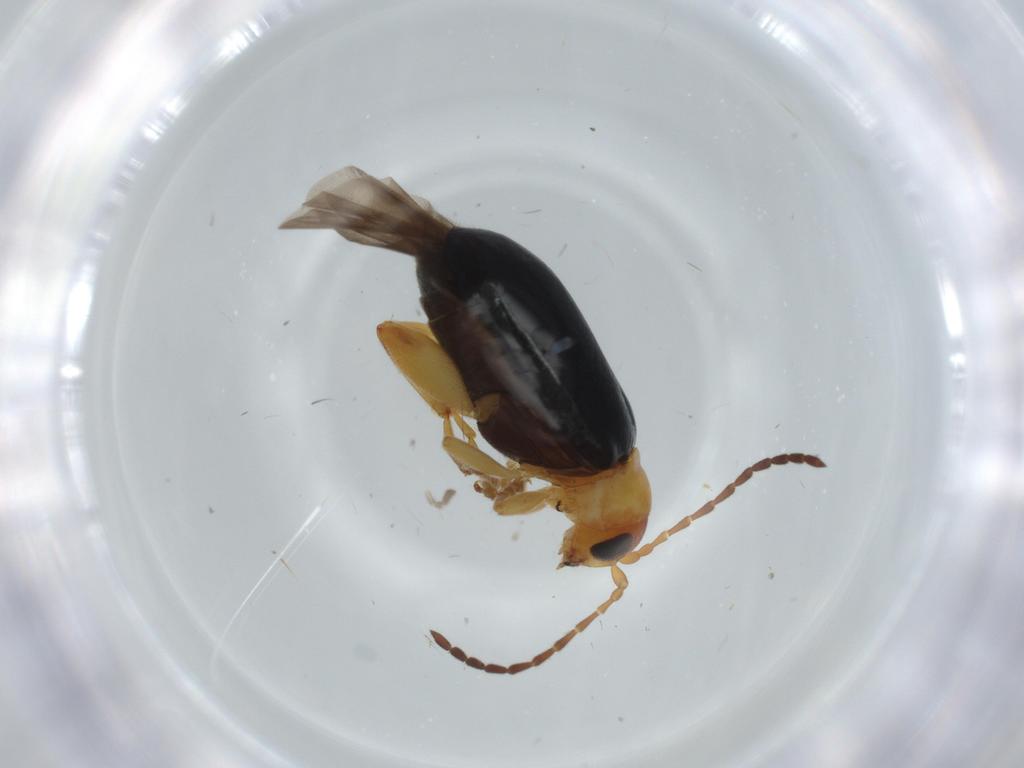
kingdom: Animalia
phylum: Arthropoda
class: Insecta
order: Coleoptera
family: Chrysomelidae
